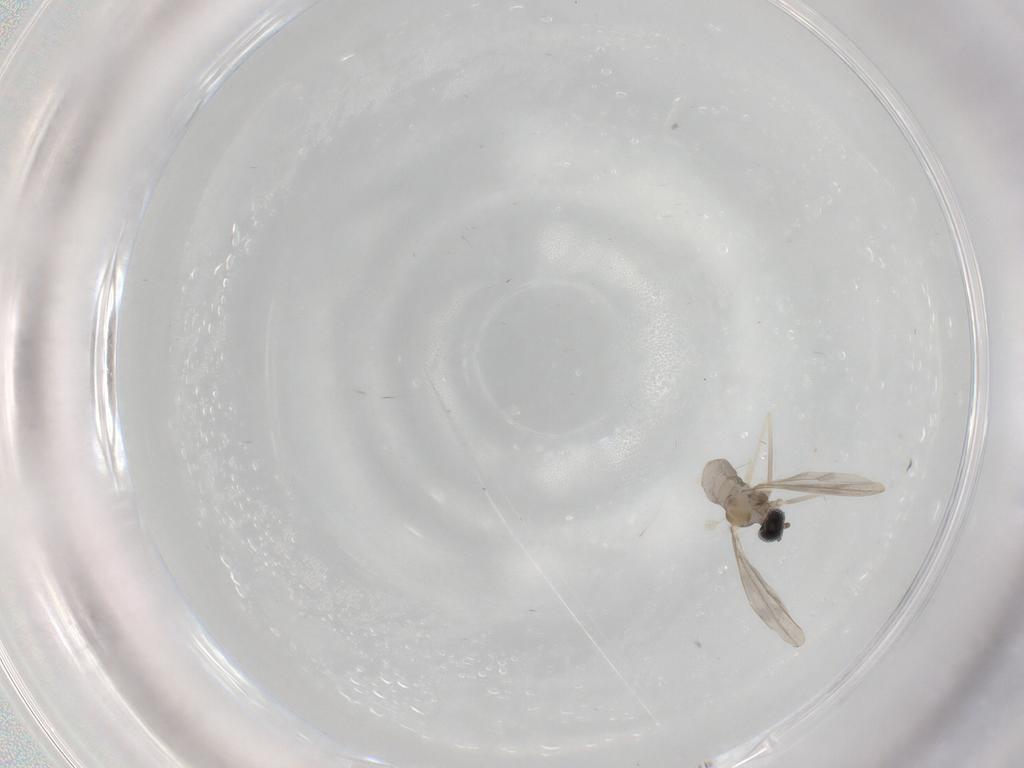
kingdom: Animalia
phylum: Arthropoda
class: Insecta
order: Diptera
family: Cecidomyiidae
